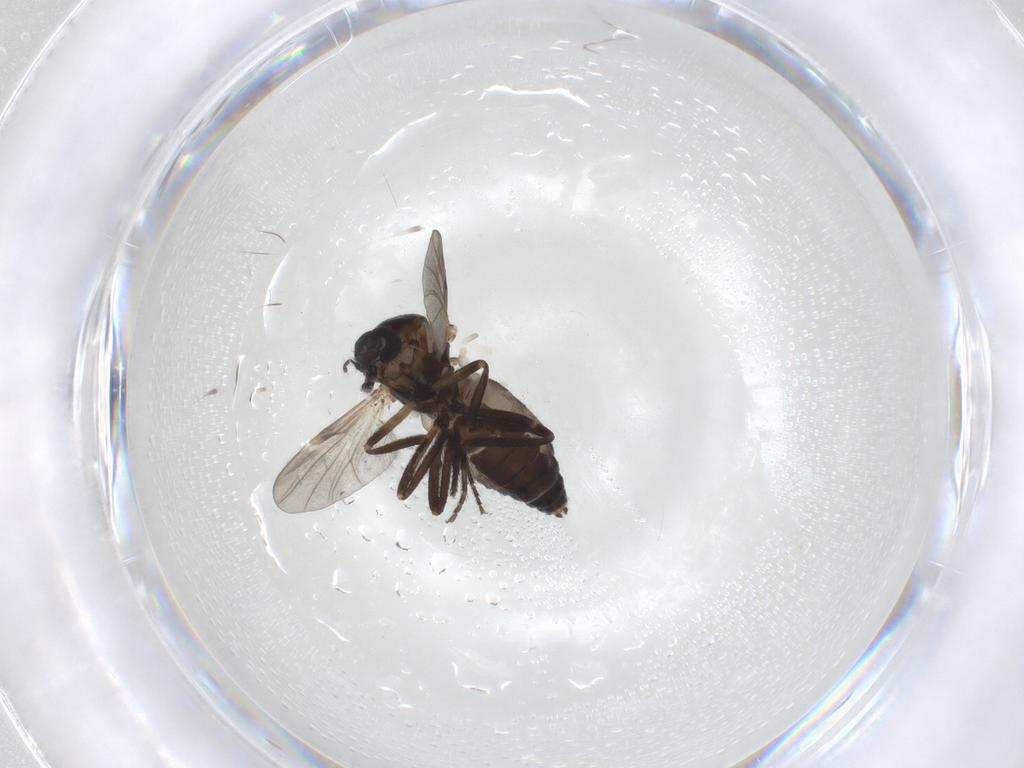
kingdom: Animalia
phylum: Arthropoda
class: Insecta
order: Diptera
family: Ceratopogonidae
